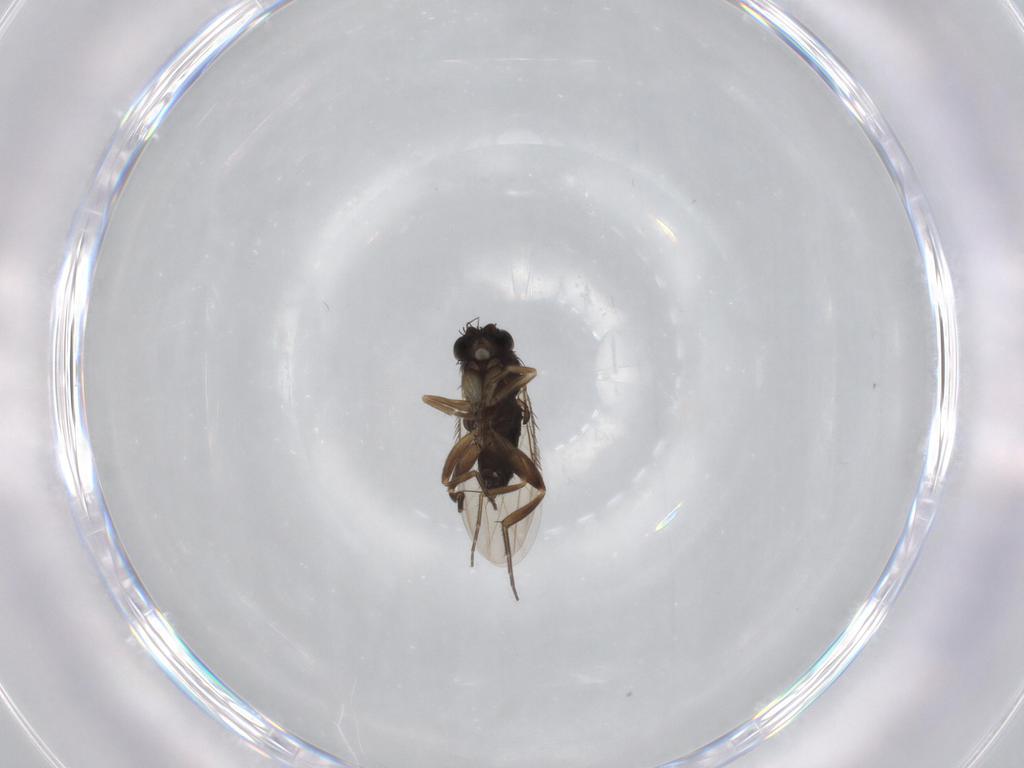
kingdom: Animalia
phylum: Arthropoda
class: Insecta
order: Diptera
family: Phoridae
